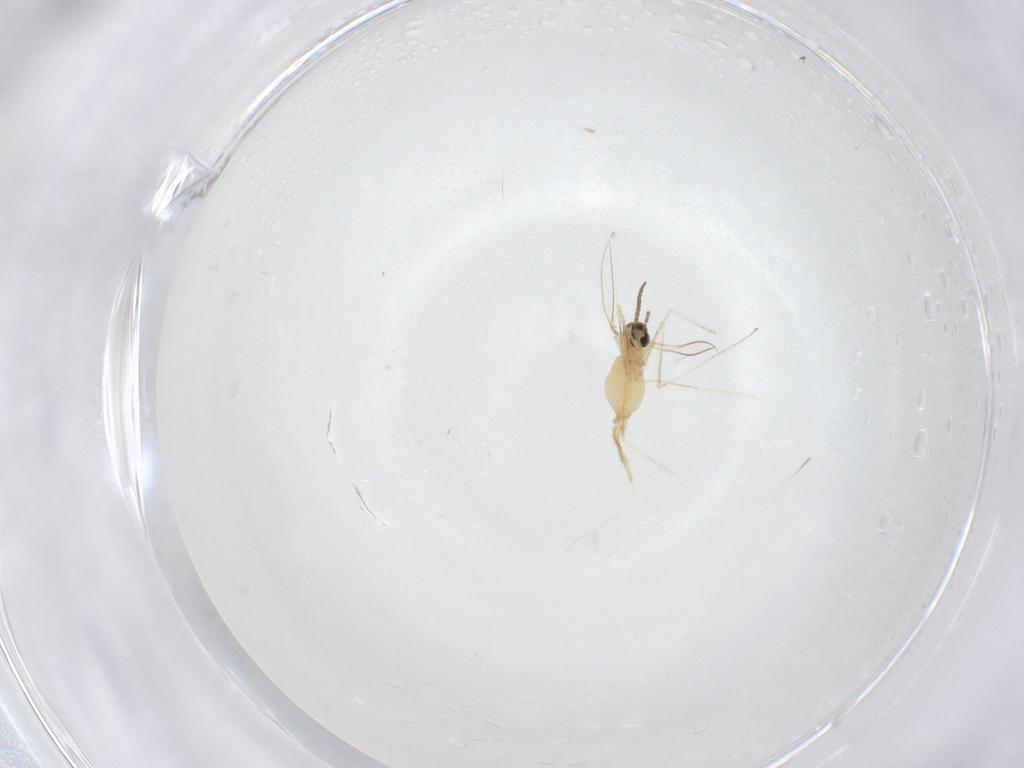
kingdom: Animalia
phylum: Arthropoda
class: Insecta
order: Diptera
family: Cecidomyiidae
